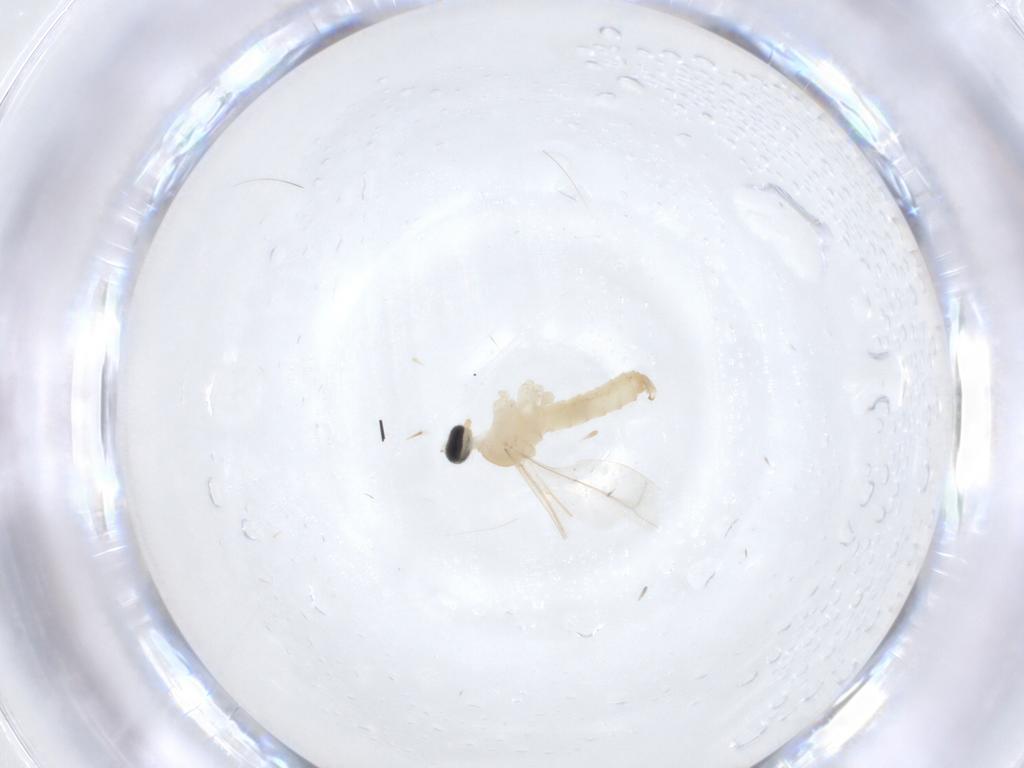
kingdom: Animalia
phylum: Arthropoda
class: Insecta
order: Diptera
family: Cecidomyiidae
